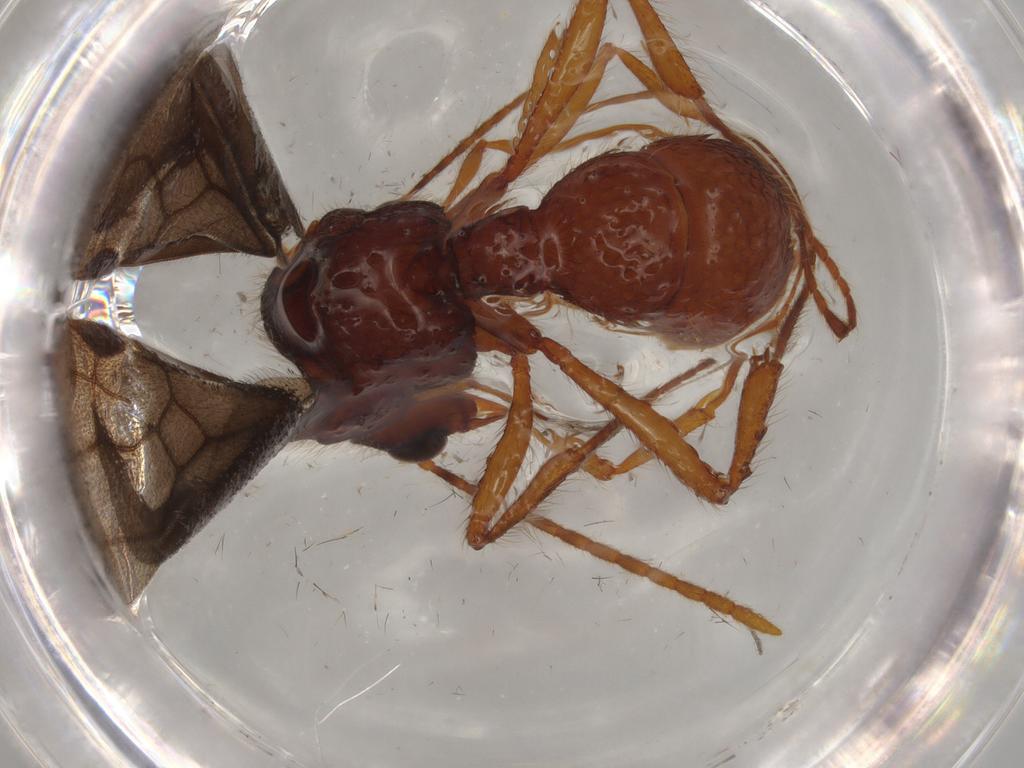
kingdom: Animalia
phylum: Arthropoda
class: Insecta
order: Hymenoptera
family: Formicidae
